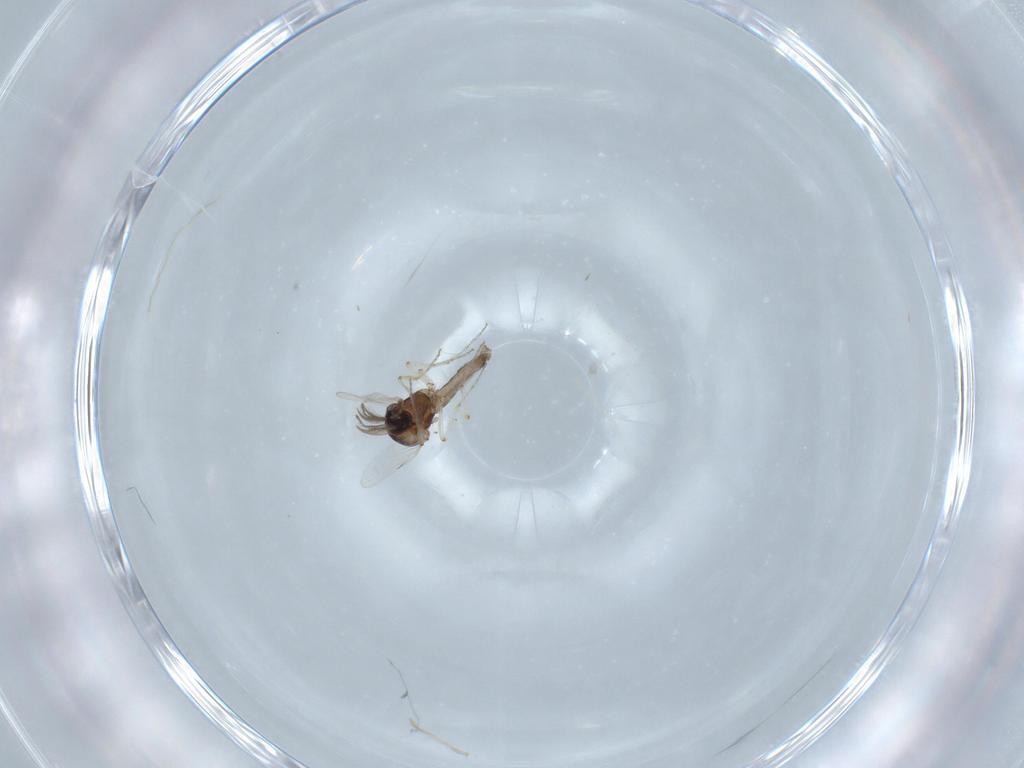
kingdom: Animalia
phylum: Arthropoda
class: Insecta
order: Diptera
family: Ceratopogonidae
